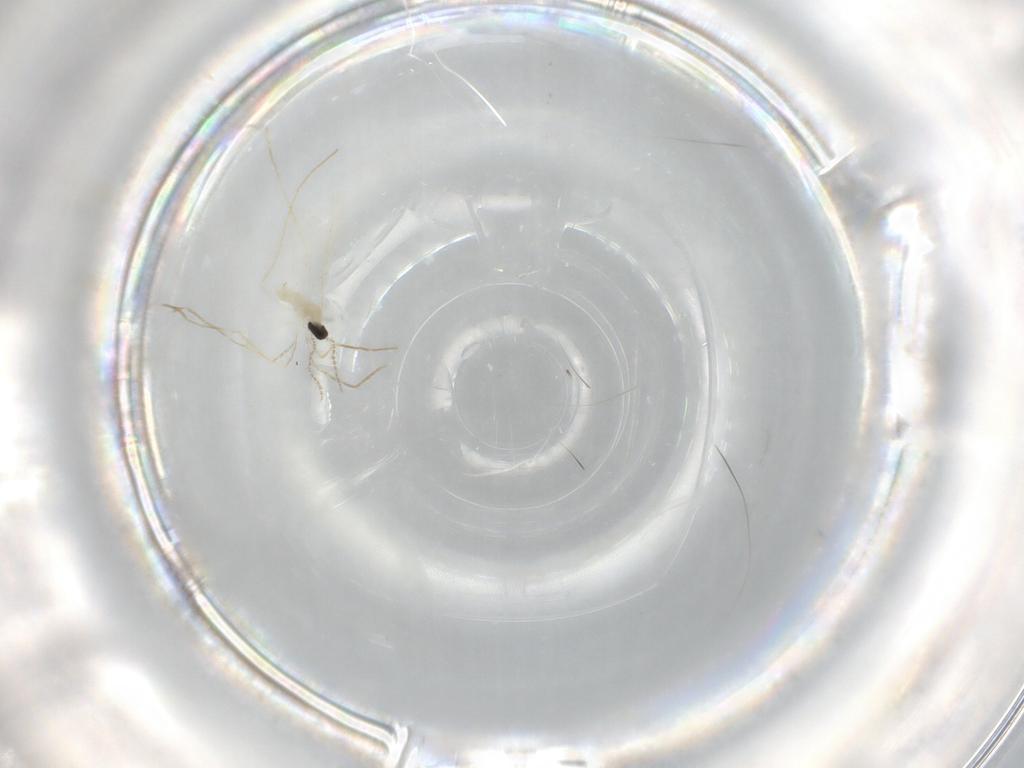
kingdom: Animalia
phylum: Arthropoda
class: Insecta
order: Diptera
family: Cecidomyiidae
